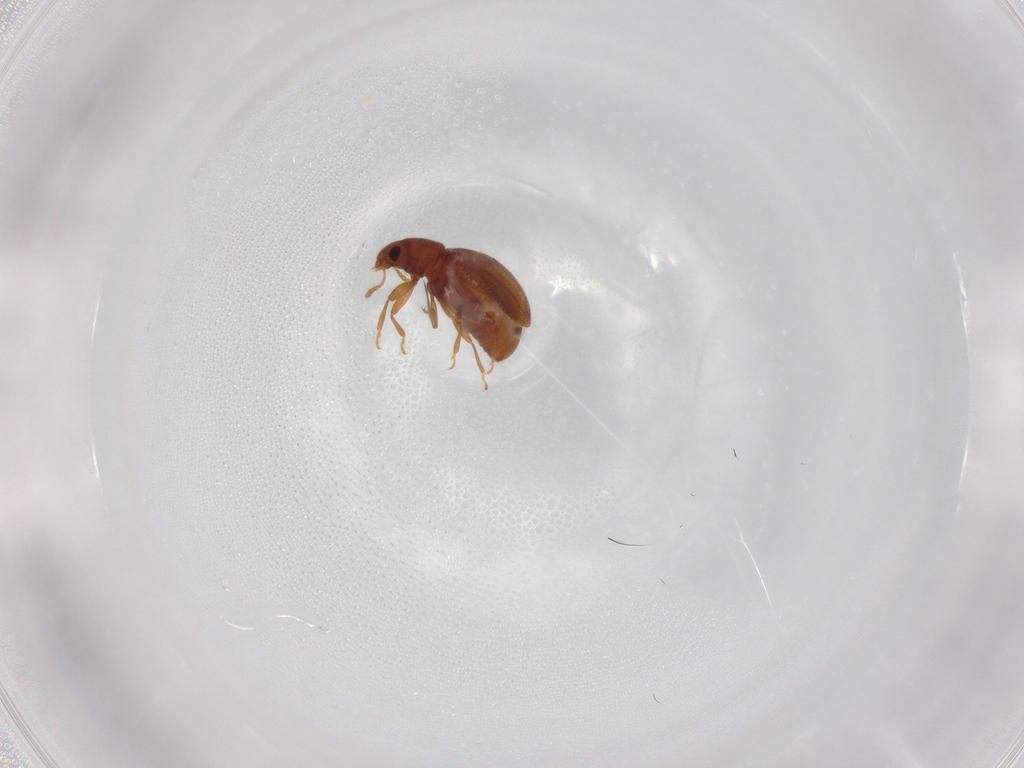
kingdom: Animalia
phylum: Arthropoda
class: Insecta
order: Coleoptera
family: Latridiidae
